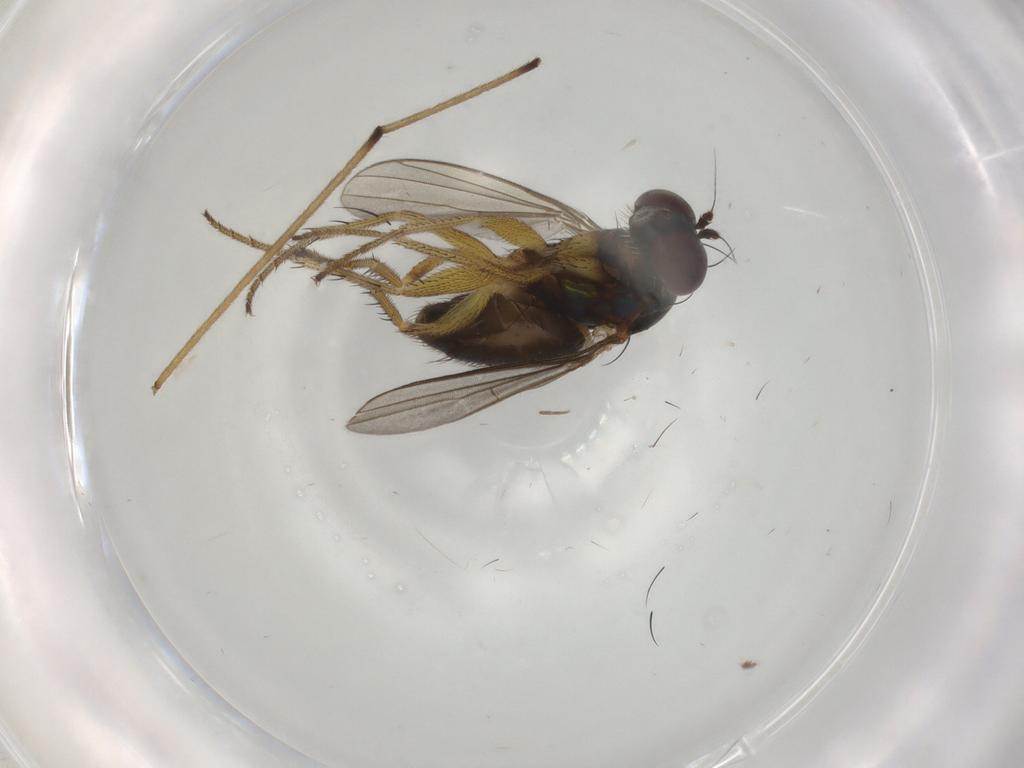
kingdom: Animalia
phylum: Arthropoda
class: Insecta
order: Diptera
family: Dolichopodidae
